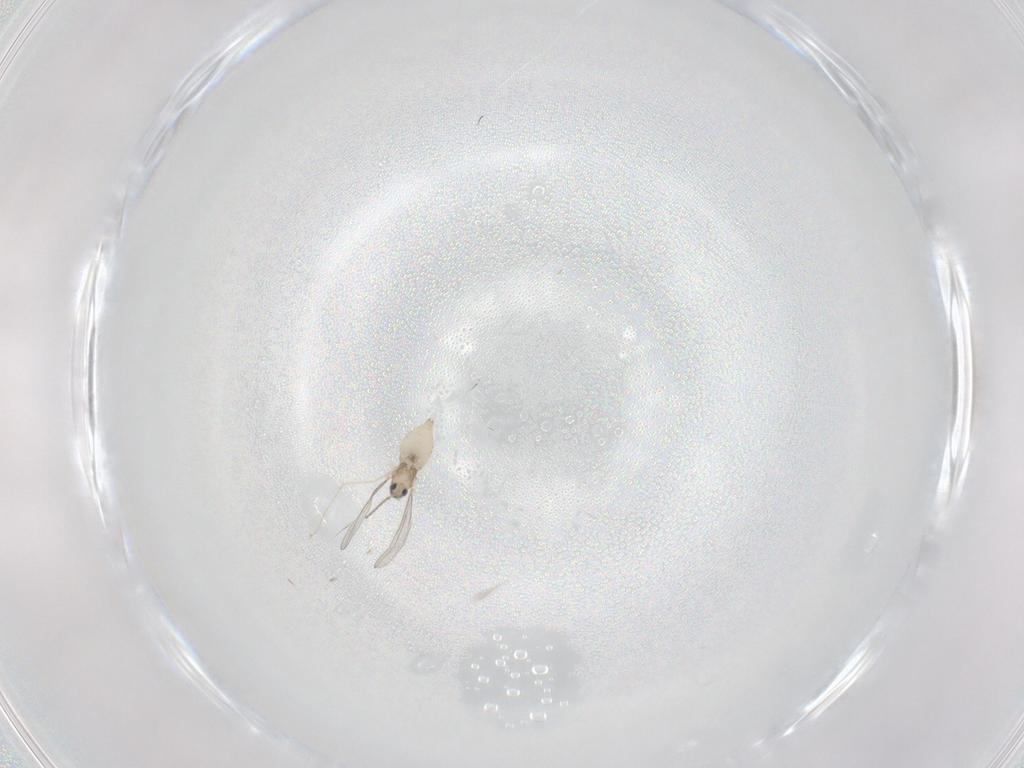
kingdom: Animalia
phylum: Arthropoda
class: Insecta
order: Diptera
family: Cecidomyiidae
